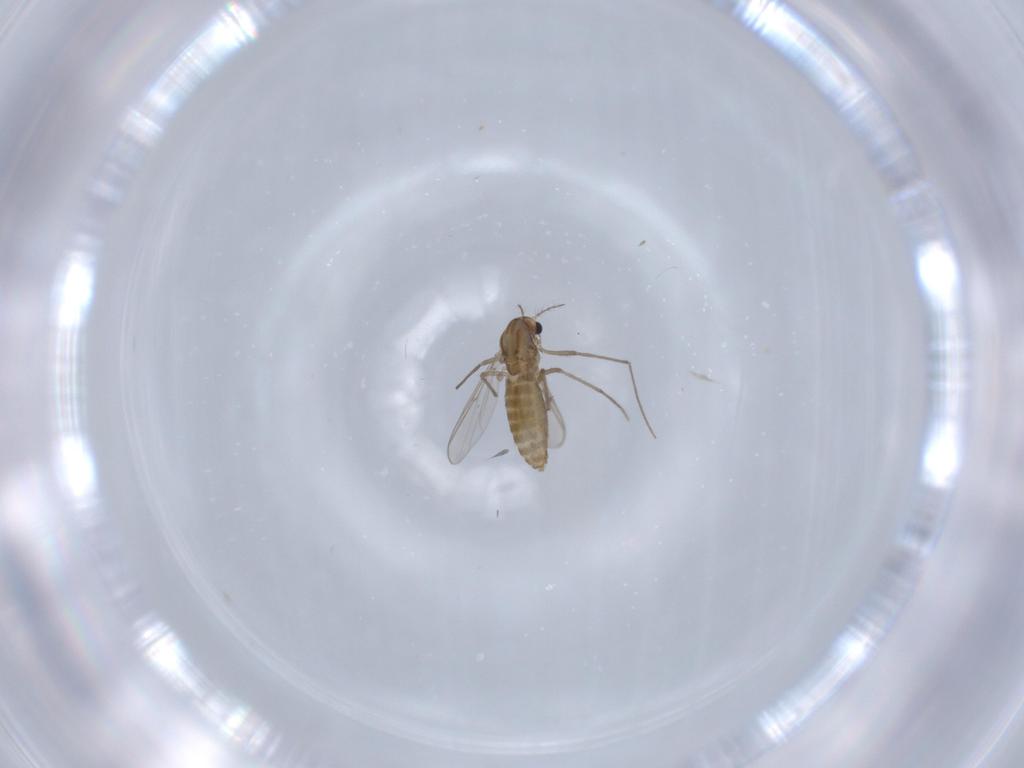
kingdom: Animalia
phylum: Arthropoda
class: Insecta
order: Diptera
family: Chironomidae
